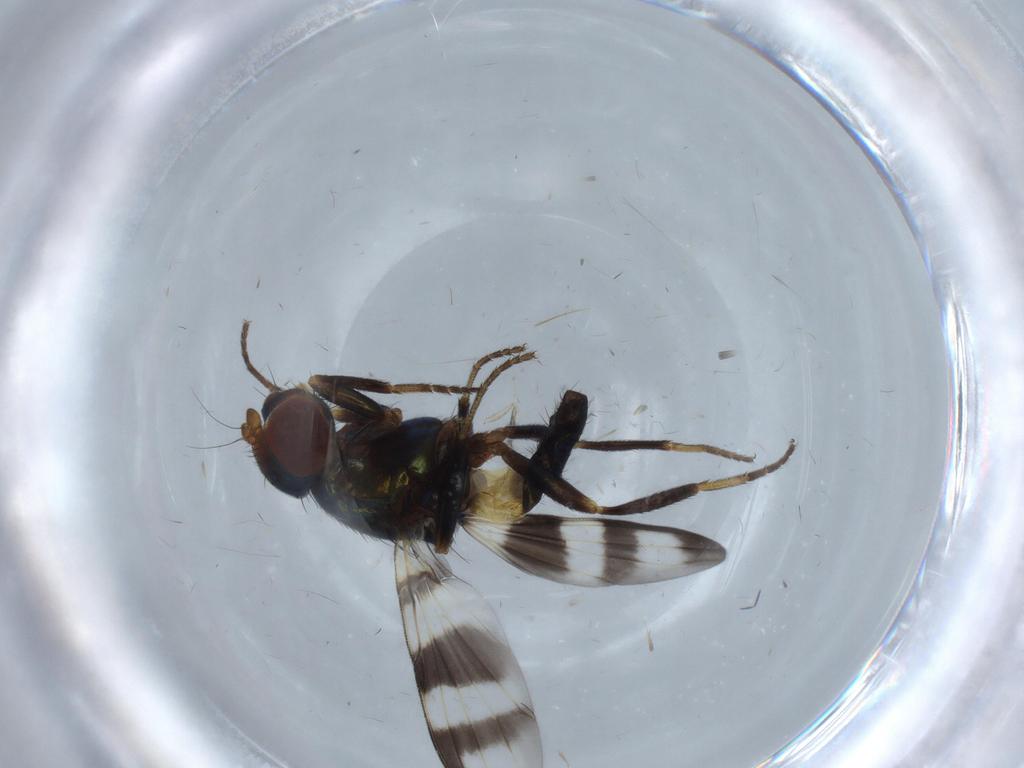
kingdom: Animalia
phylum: Arthropoda
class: Insecta
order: Diptera
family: Ulidiidae
